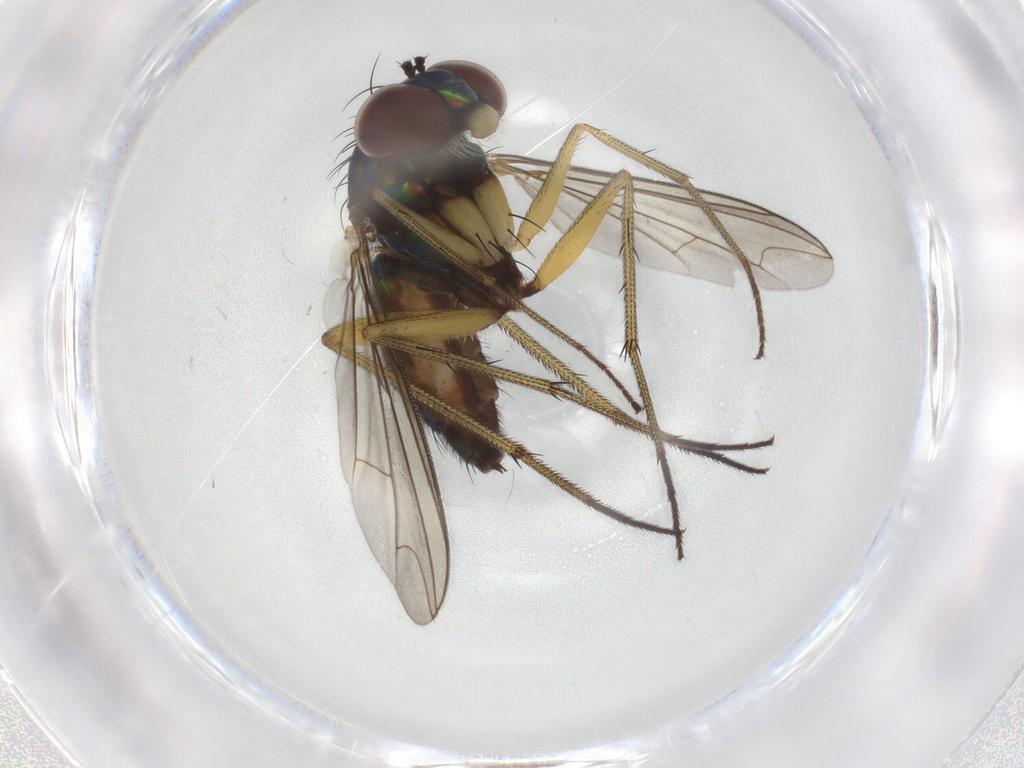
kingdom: Animalia
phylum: Arthropoda
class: Insecta
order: Diptera
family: Dolichopodidae
